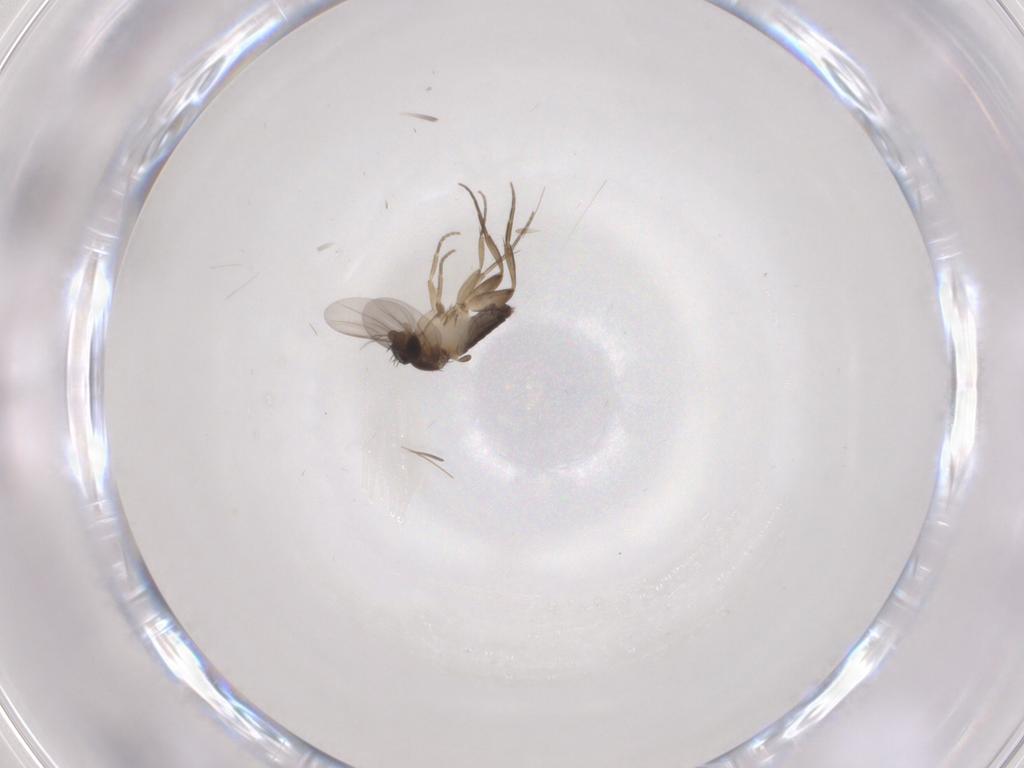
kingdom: Animalia
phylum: Arthropoda
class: Insecta
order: Diptera
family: Phoridae
